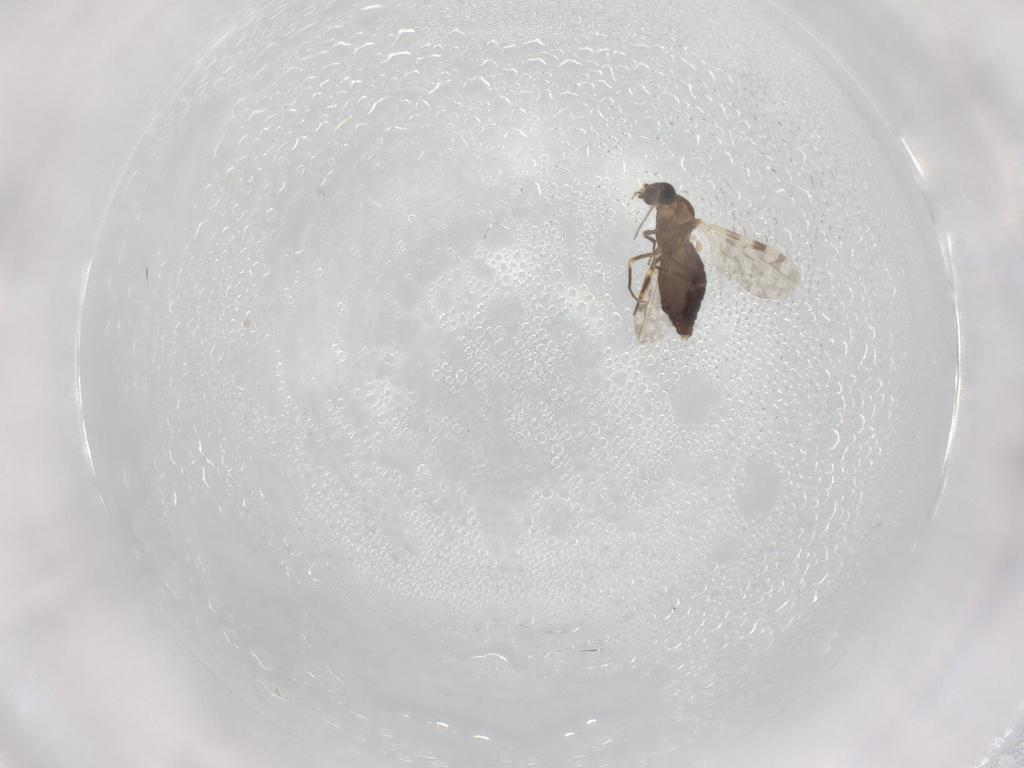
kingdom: Animalia
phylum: Arthropoda
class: Insecta
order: Diptera
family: Ceratopogonidae
